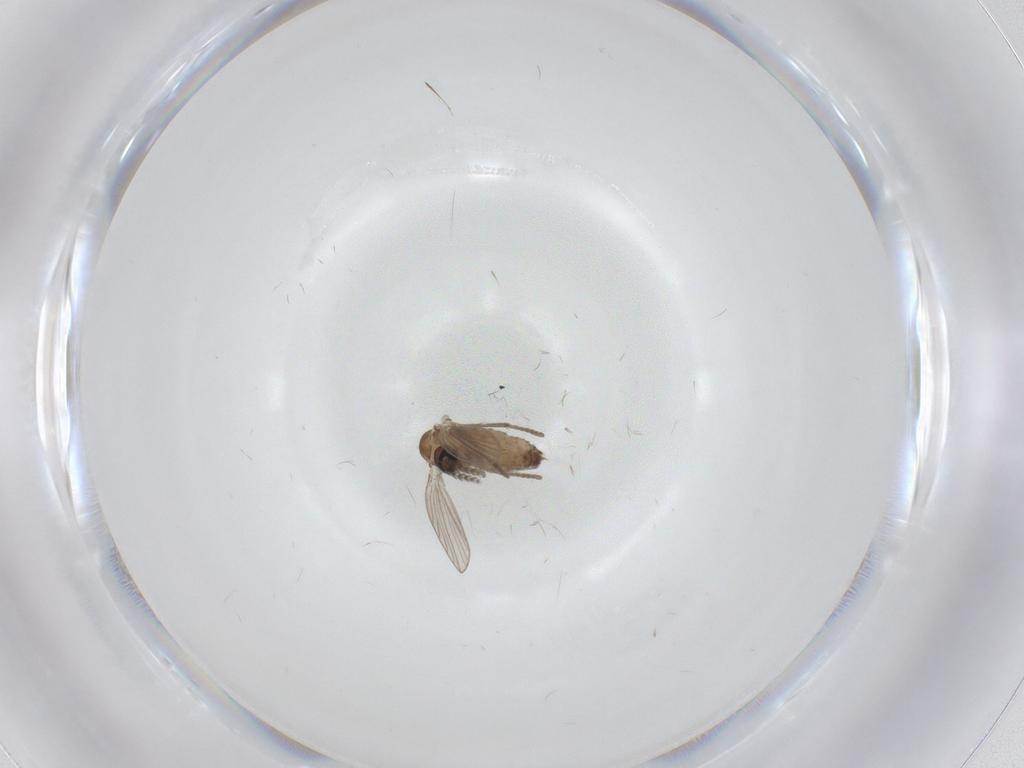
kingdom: Animalia
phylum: Arthropoda
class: Insecta
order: Diptera
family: Psychodidae
